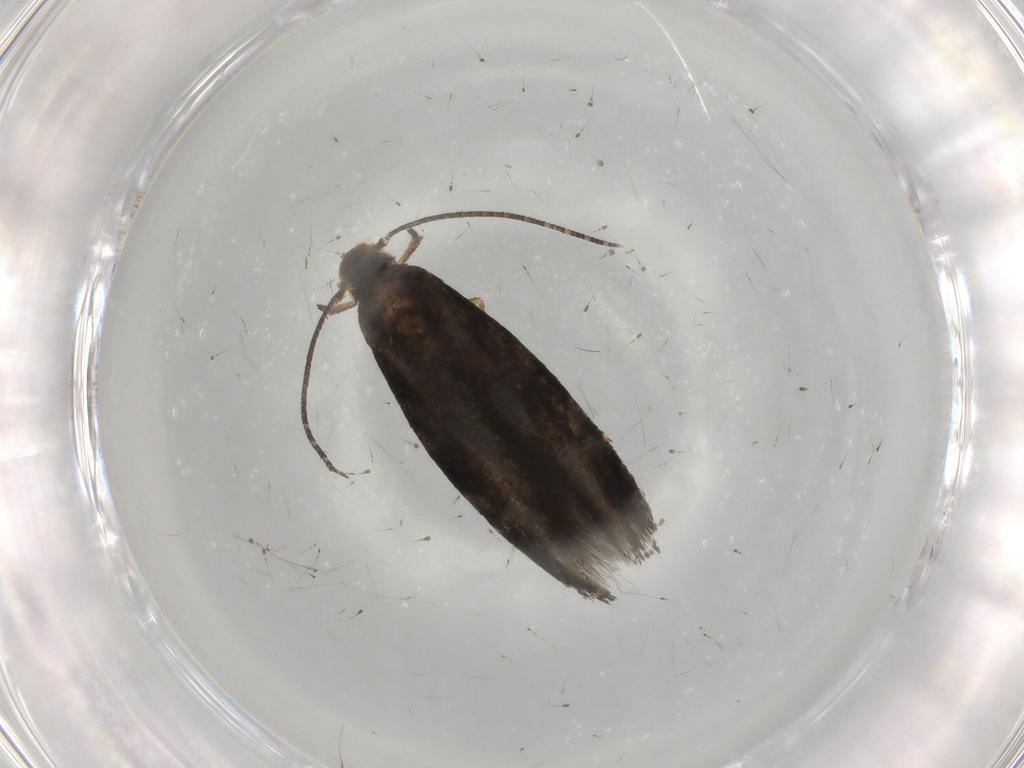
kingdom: Animalia
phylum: Arthropoda
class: Insecta
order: Lepidoptera
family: Momphidae
